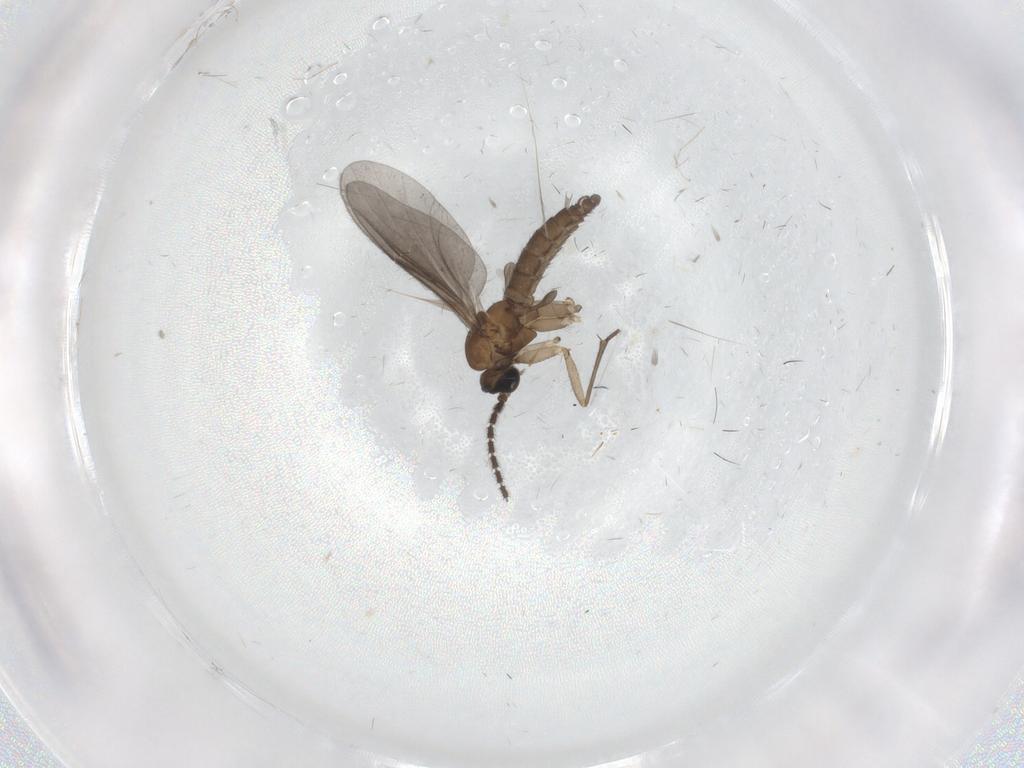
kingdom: Animalia
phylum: Arthropoda
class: Insecta
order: Diptera
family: Sciaridae
